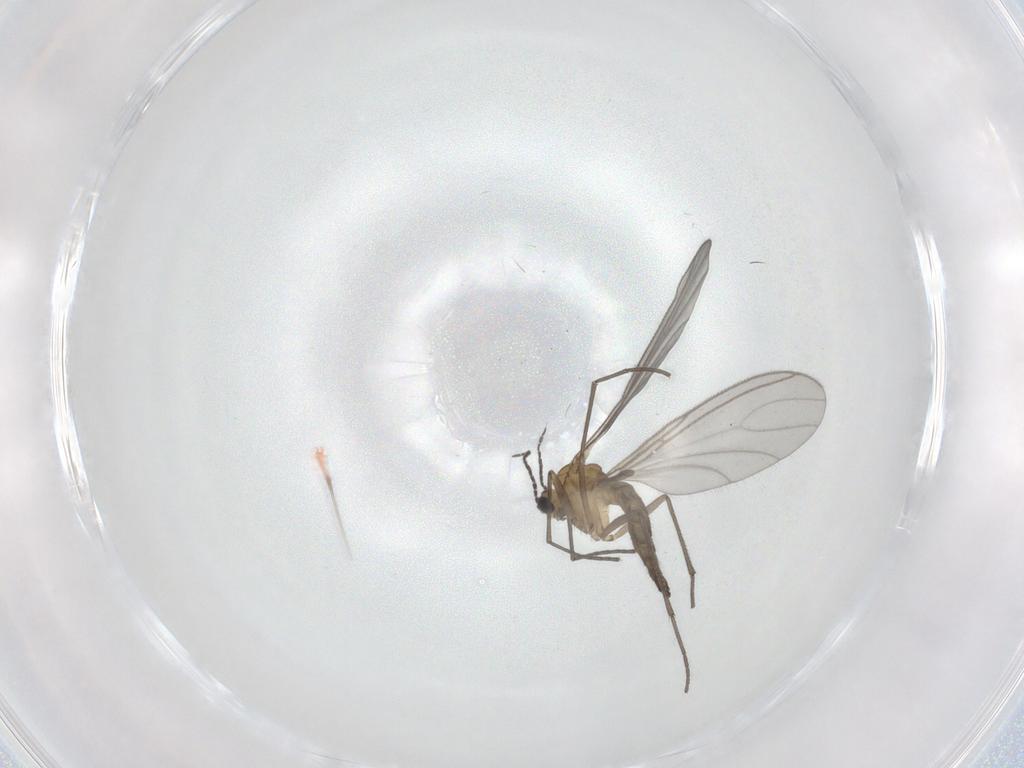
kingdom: Animalia
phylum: Arthropoda
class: Insecta
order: Diptera
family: Sciaridae
